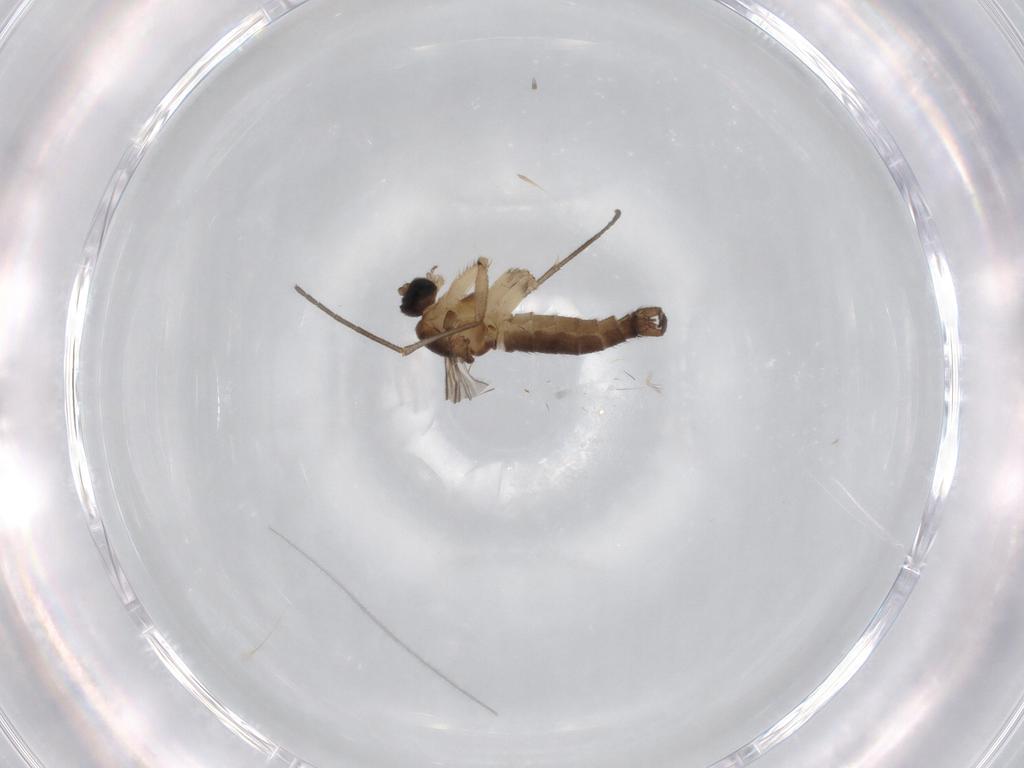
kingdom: Animalia
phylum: Arthropoda
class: Insecta
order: Diptera
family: Sciaridae
